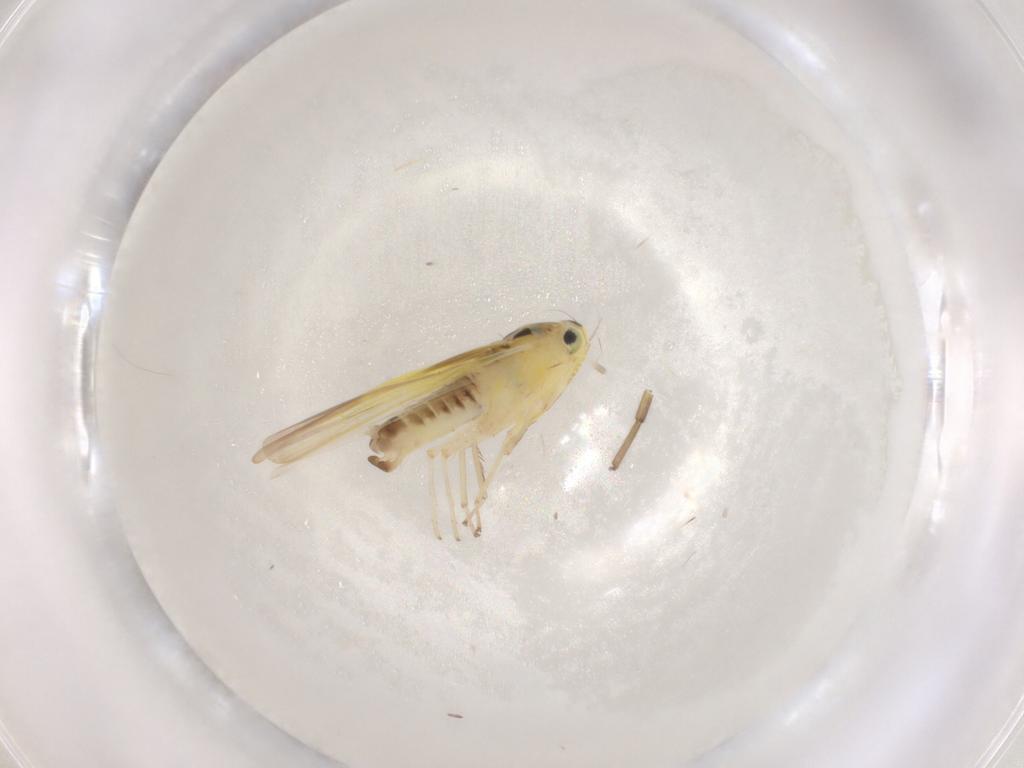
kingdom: Animalia
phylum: Arthropoda
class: Insecta
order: Hemiptera
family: Cicadellidae
